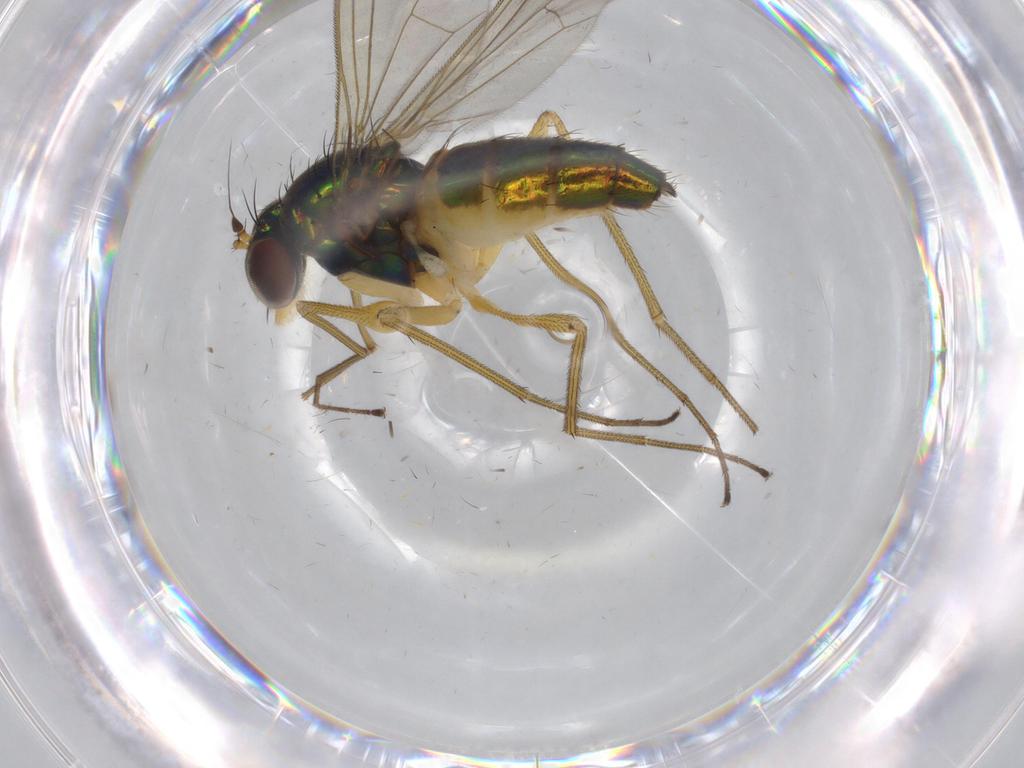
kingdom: Animalia
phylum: Arthropoda
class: Insecta
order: Diptera
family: Dolichopodidae
